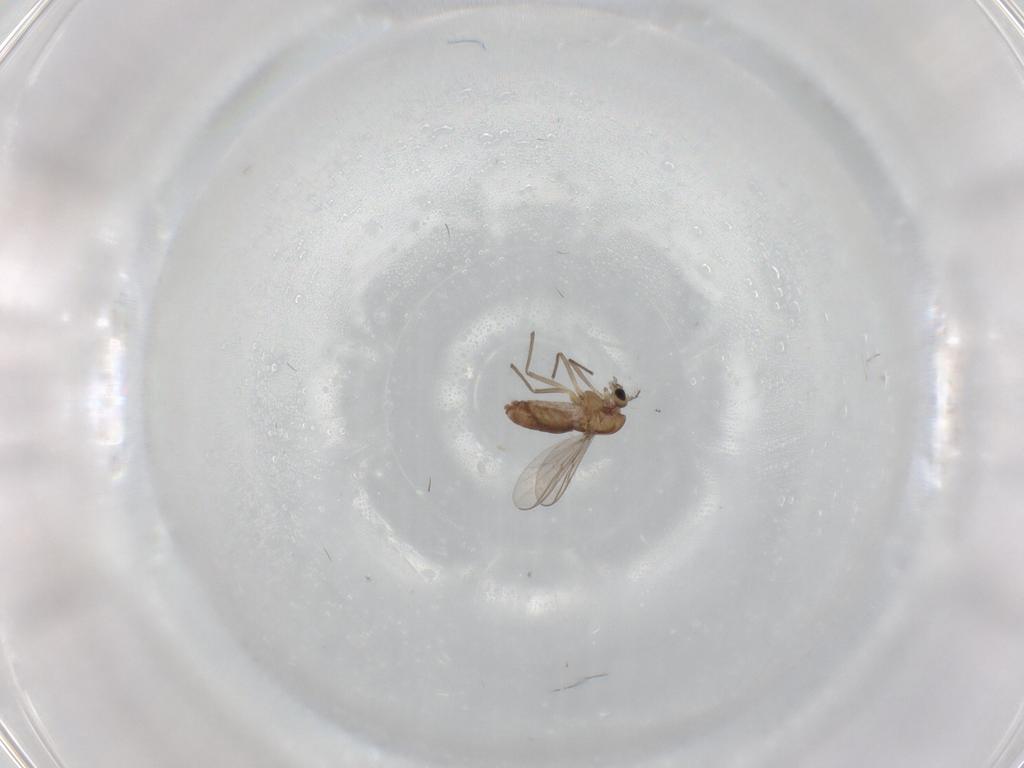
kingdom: Animalia
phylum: Arthropoda
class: Insecta
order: Diptera
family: Chironomidae
